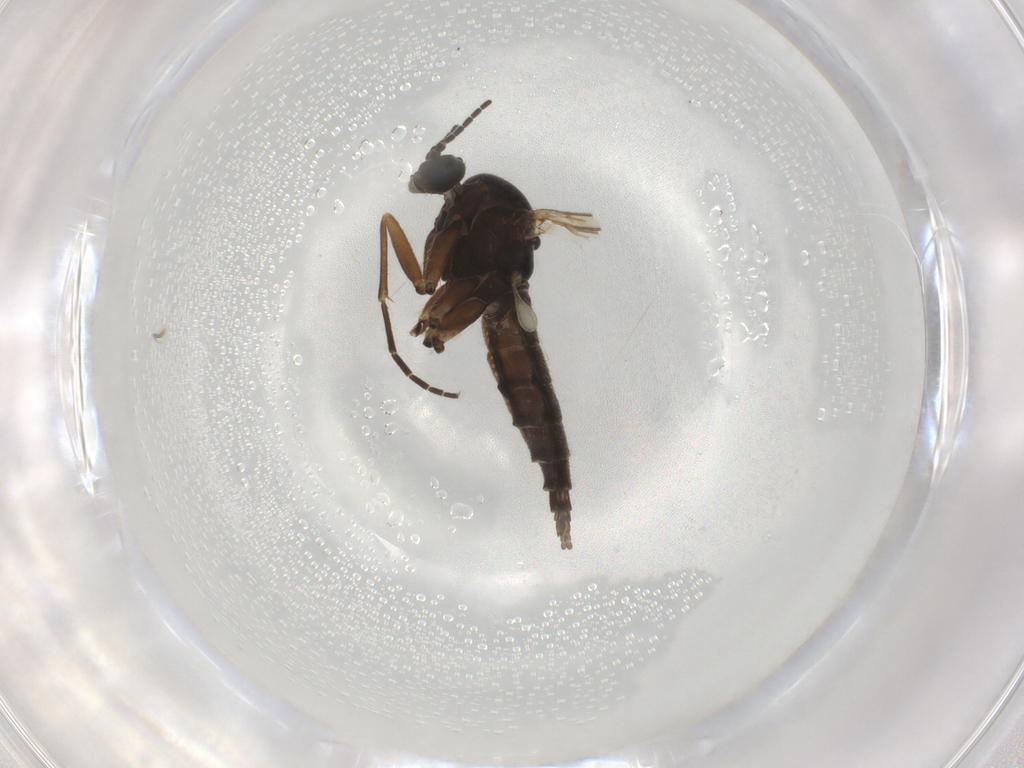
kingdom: Animalia
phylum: Arthropoda
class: Insecta
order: Diptera
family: Sciaridae
